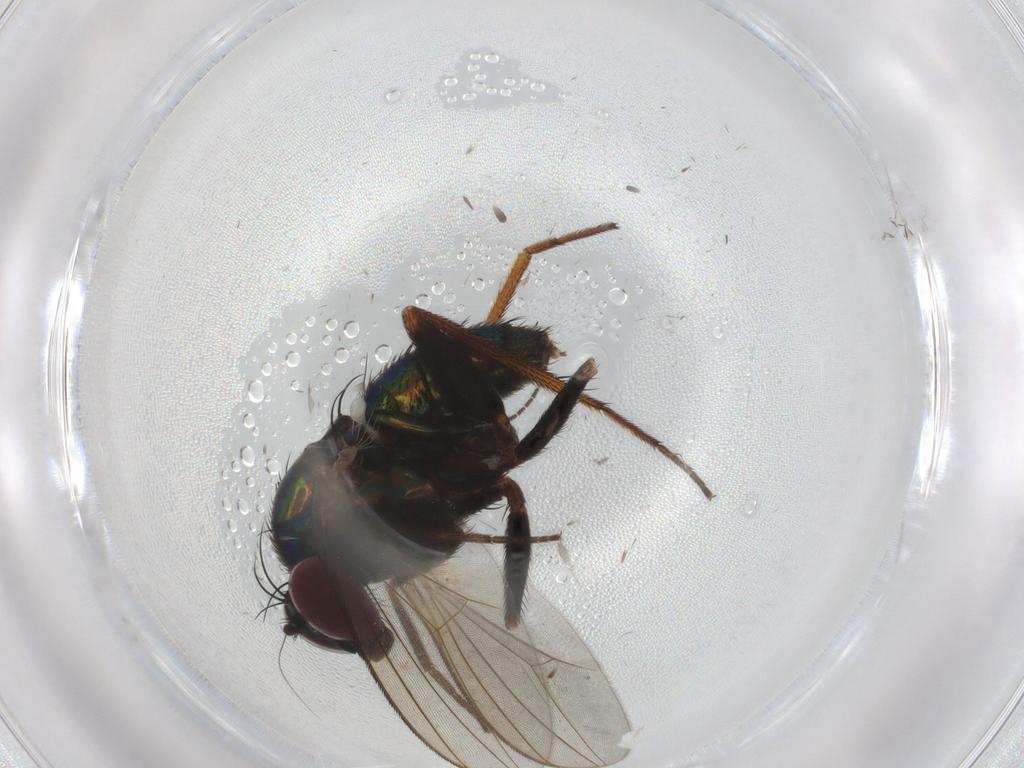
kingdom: Animalia
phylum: Arthropoda
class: Insecta
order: Diptera
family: Dolichopodidae
